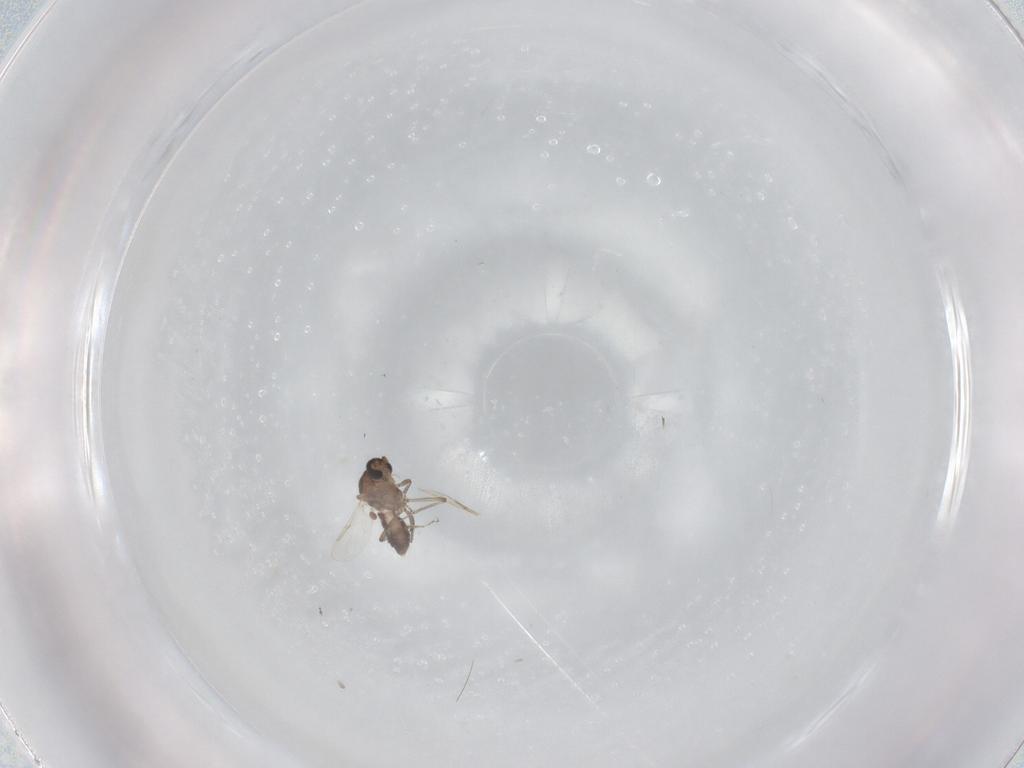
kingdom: Animalia
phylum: Arthropoda
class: Insecta
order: Diptera
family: Ceratopogonidae
